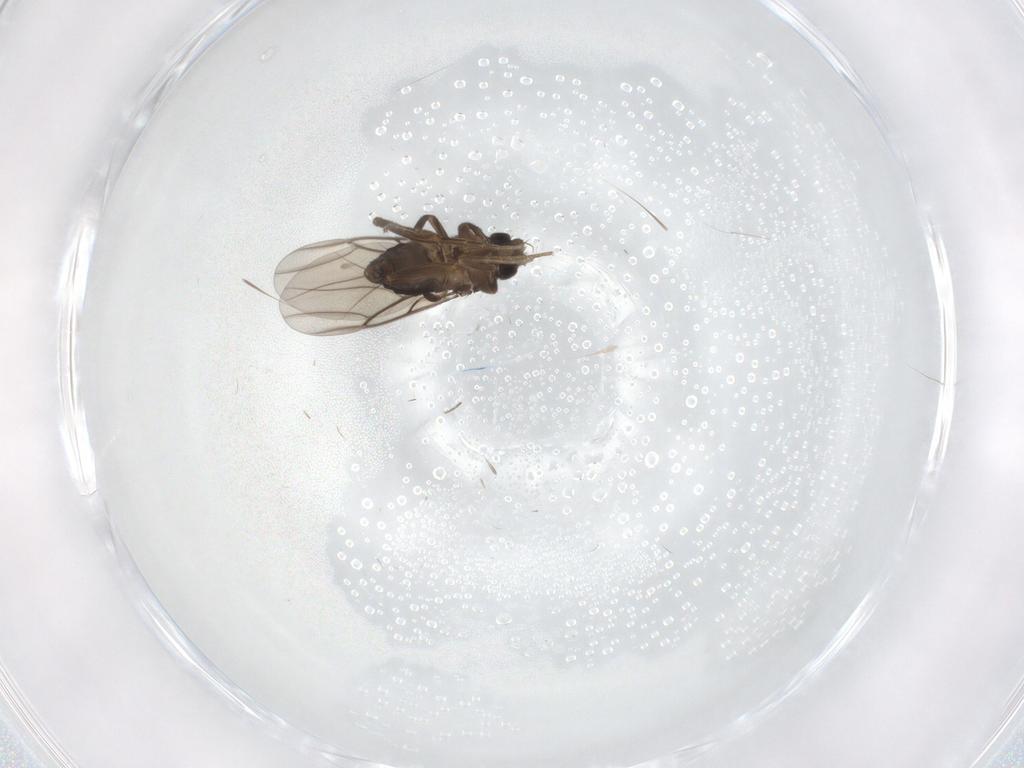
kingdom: Animalia
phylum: Arthropoda
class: Insecta
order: Diptera
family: Phoridae
